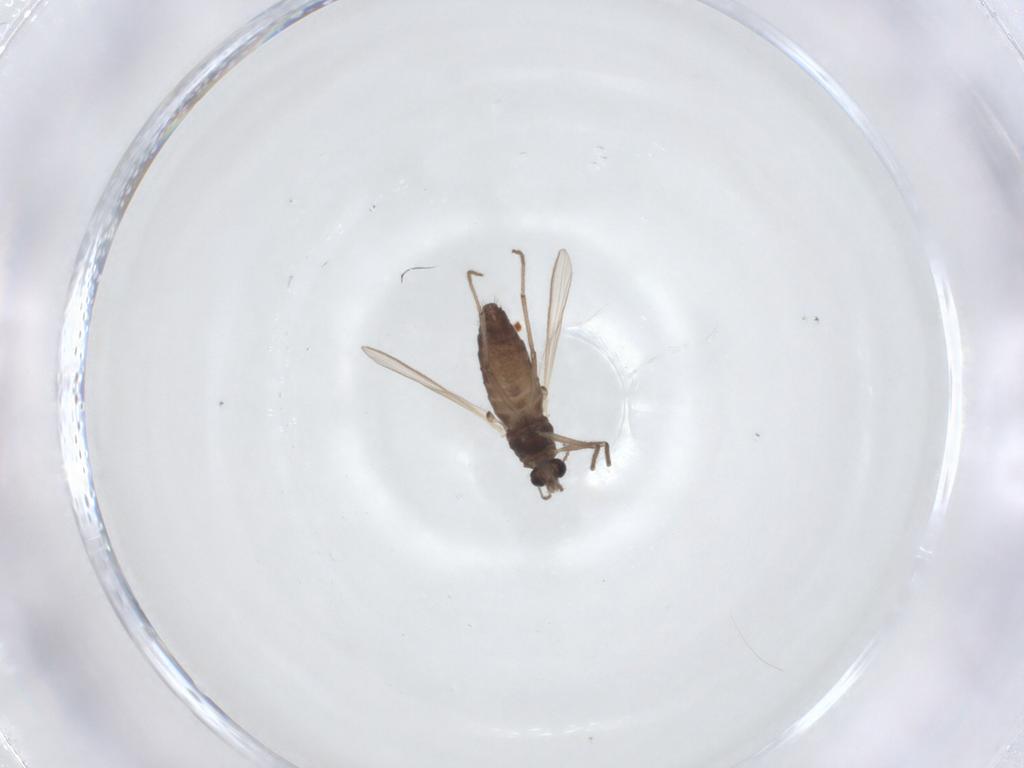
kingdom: Animalia
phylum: Arthropoda
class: Insecta
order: Diptera
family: Chironomidae
